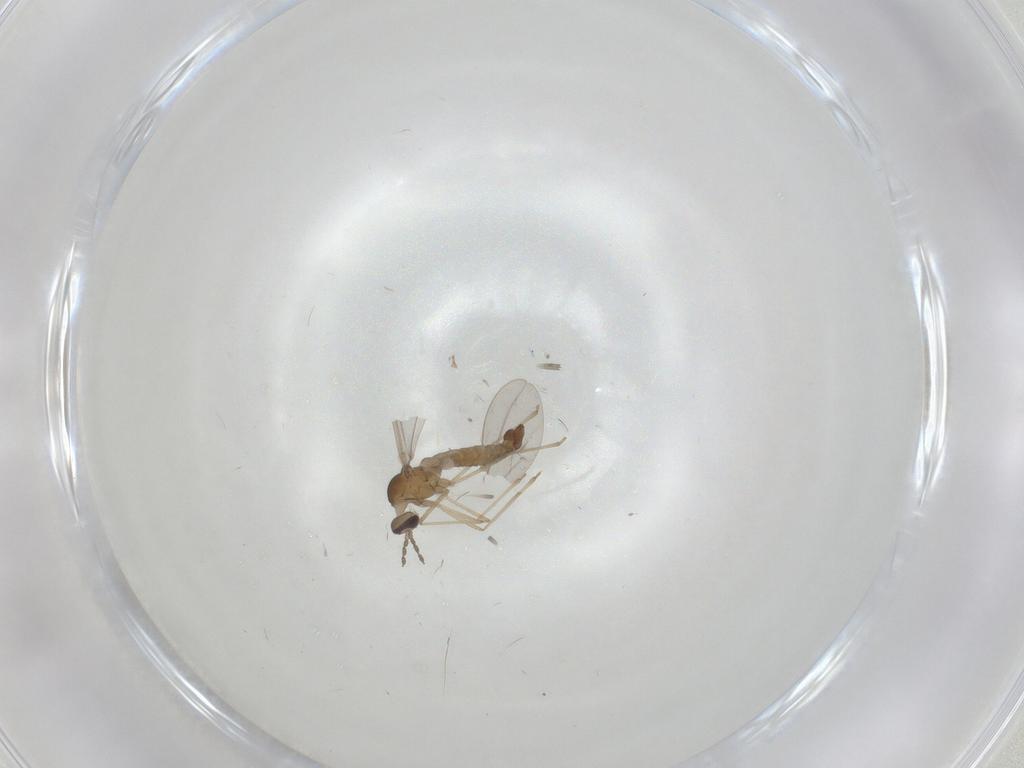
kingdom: Animalia
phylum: Arthropoda
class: Insecta
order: Diptera
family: Cecidomyiidae
